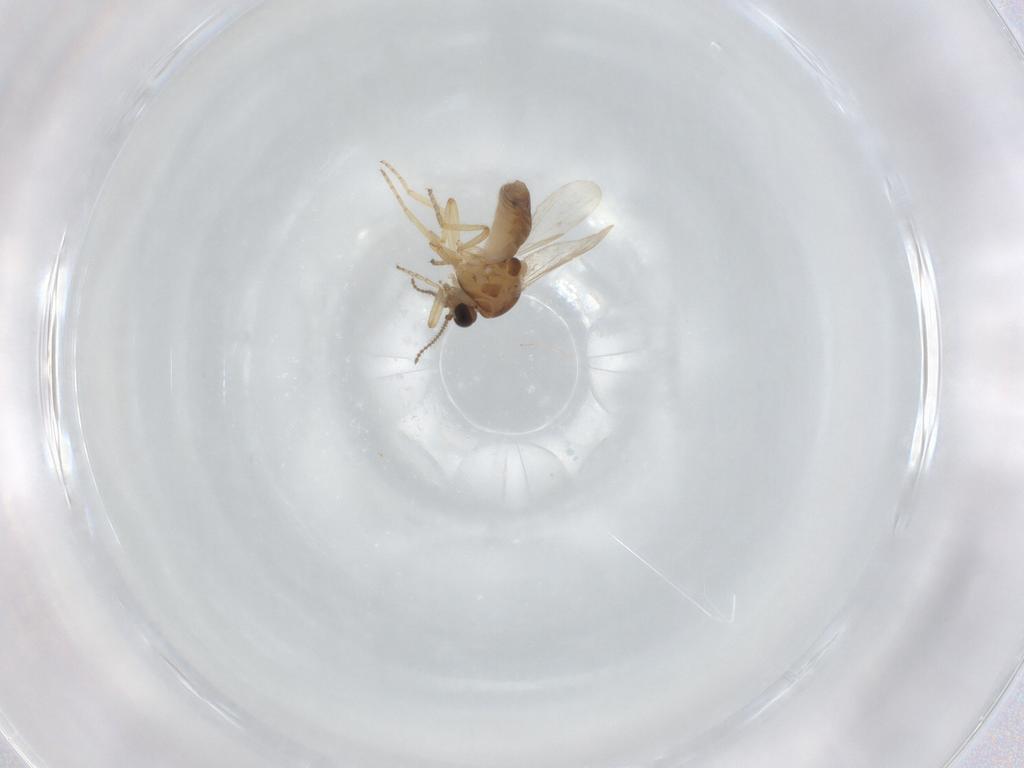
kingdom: Animalia
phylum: Arthropoda
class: Insecta
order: Diptera
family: Ceratopogonidae
